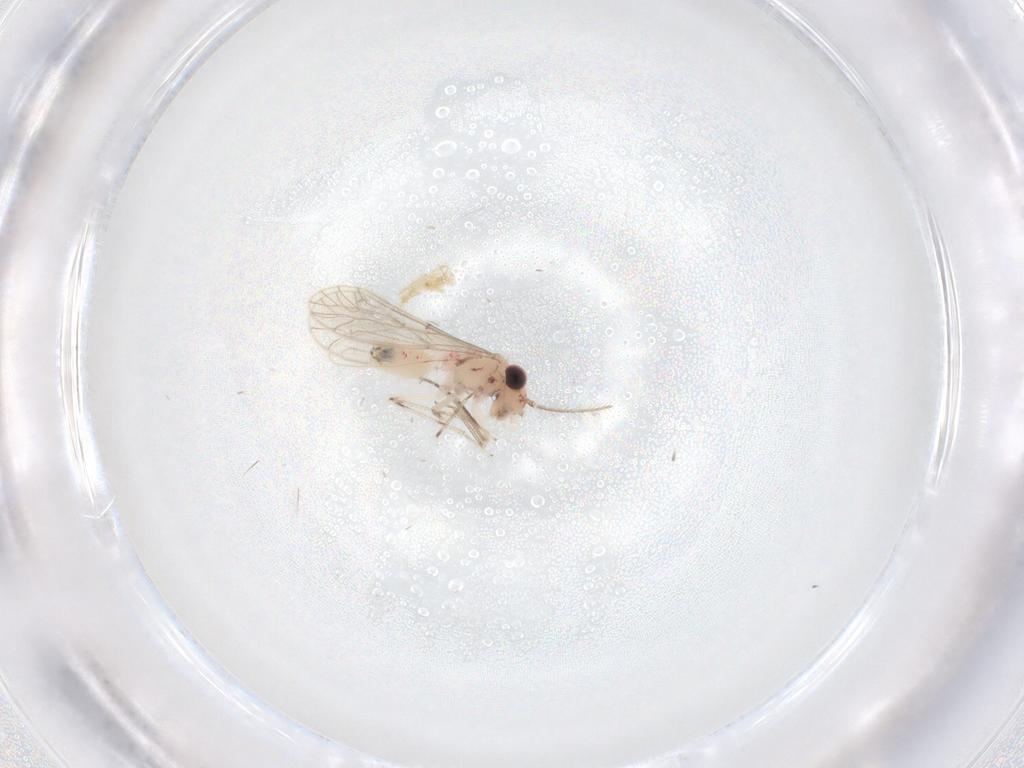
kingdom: Animalia
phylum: Arthropoda
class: Insecta
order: Psocodea
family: Caeciliusidae
